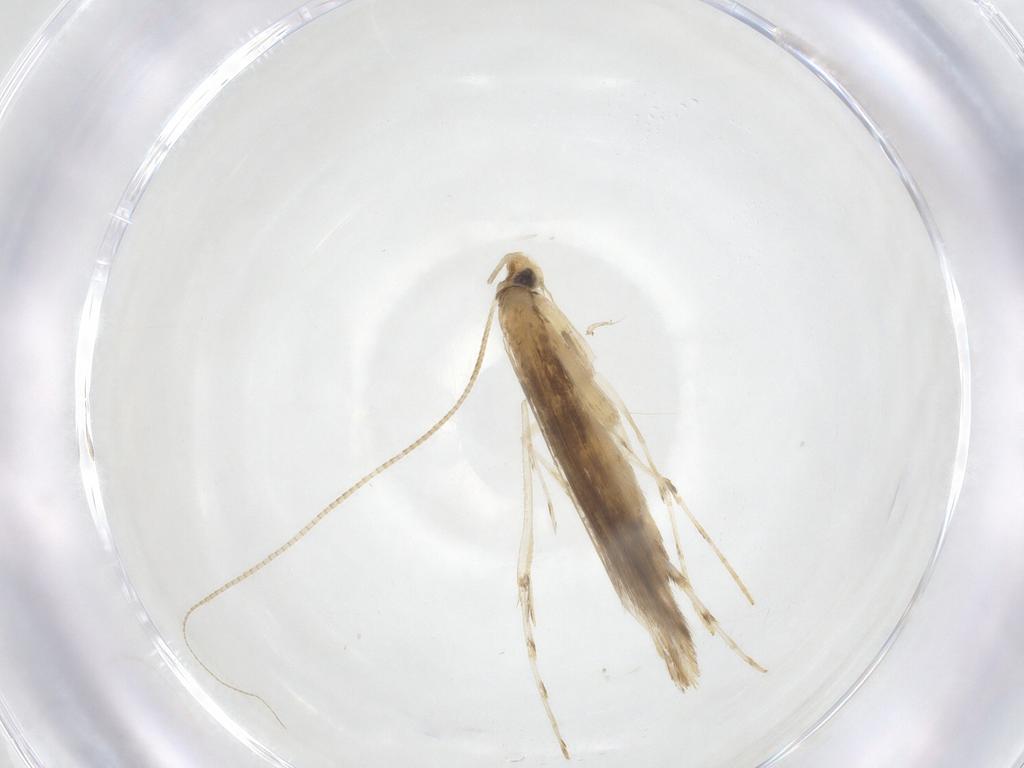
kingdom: Animalia
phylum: Arthropoda
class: Insecta
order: Lepidoptera
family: Gracillariidae
